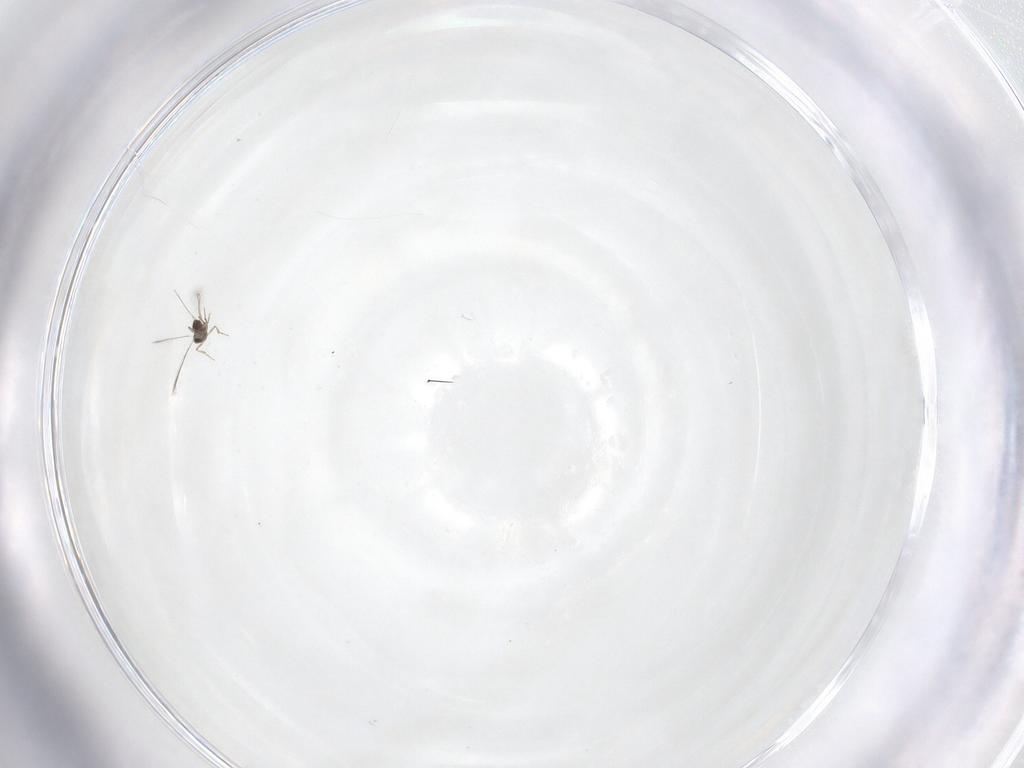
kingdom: Animalia
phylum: Arthropoda
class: Insecta
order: Hymenoptera
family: Mymaridae
